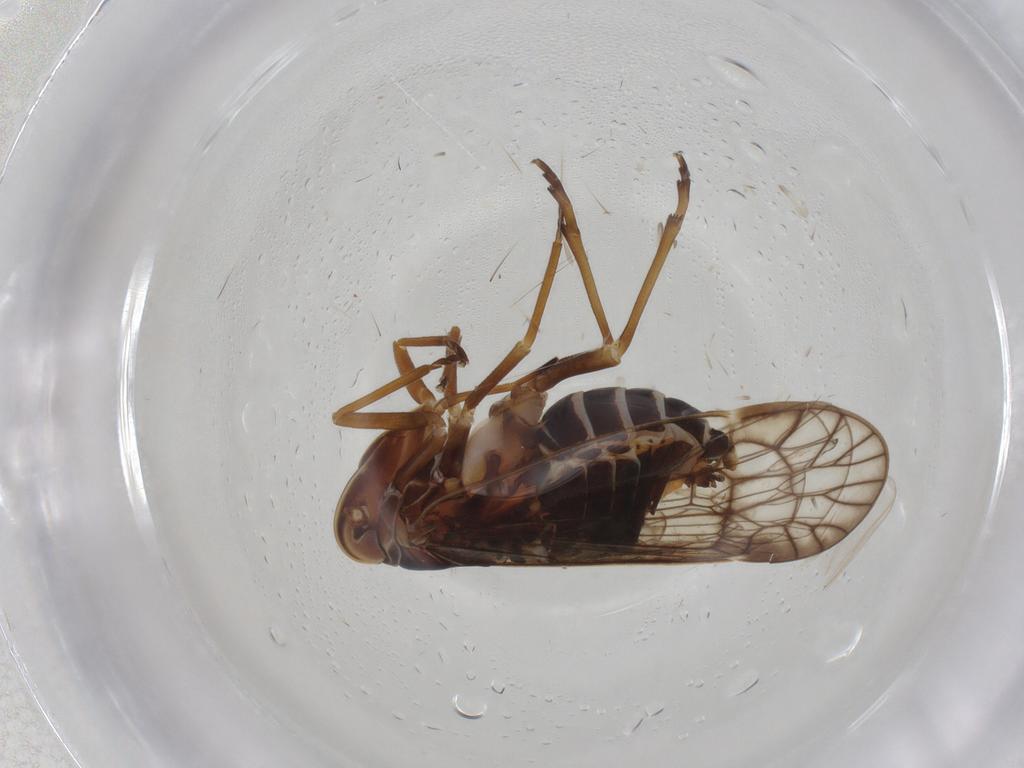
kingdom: Animalia
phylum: Arthropoda
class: Insecta
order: Hemiptera
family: Kinnaridae
